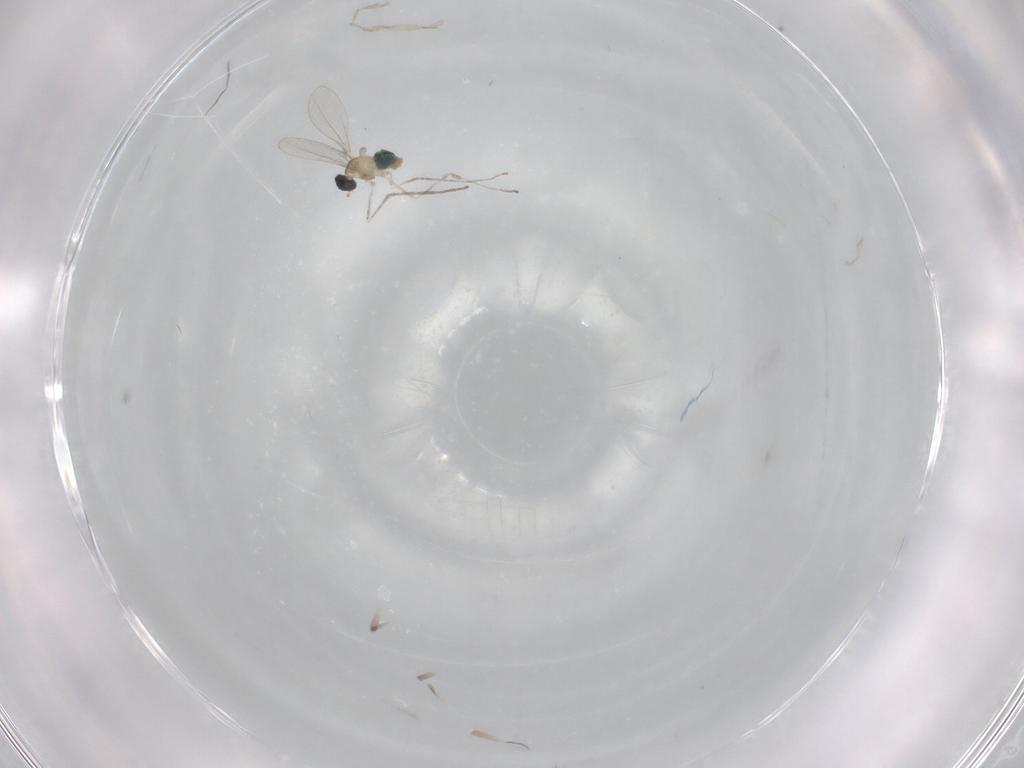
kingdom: Animalia
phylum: Arthropoda
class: Insecta
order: Diptera
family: Cecidomyiidae
